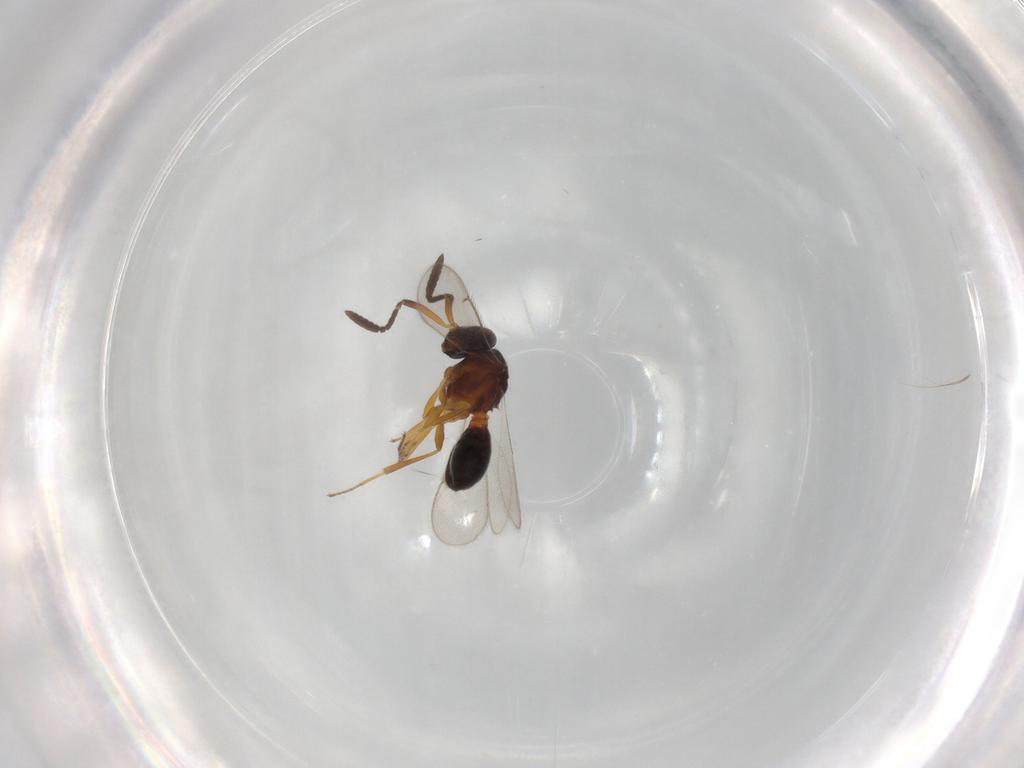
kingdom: Animalia
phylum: Arthropoda
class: Insecta
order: Hymenoptera
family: Scelionidae
